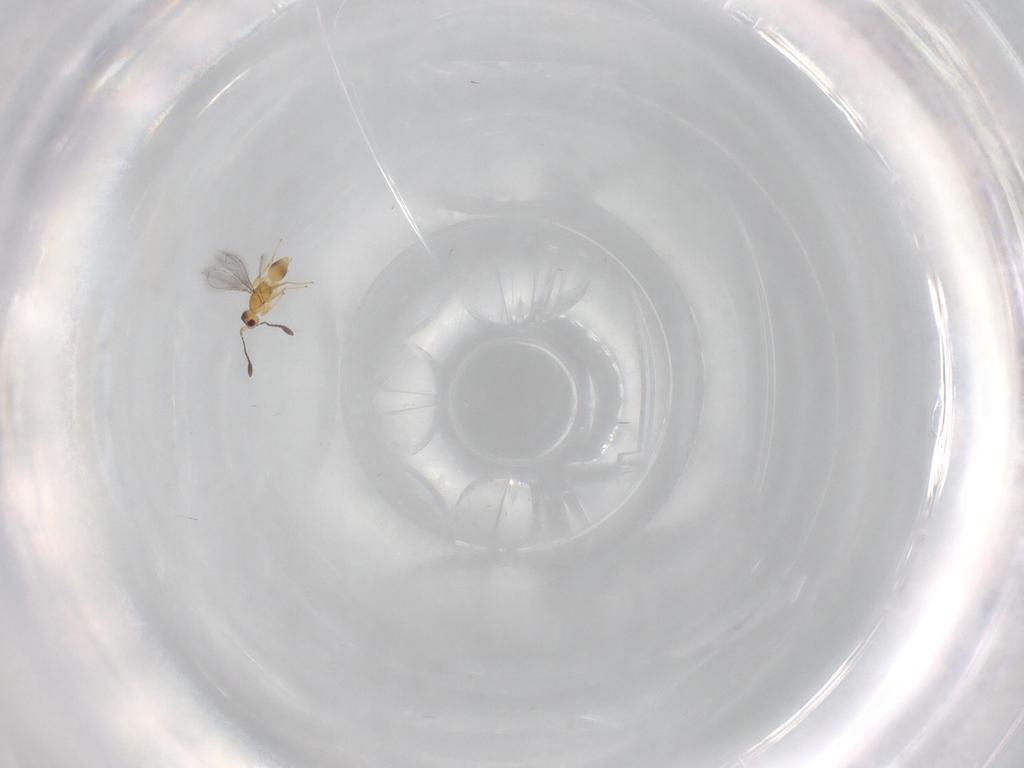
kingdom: Animalia
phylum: Arthropoda
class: Insecta
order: Hymenoptera
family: Mymaridae
